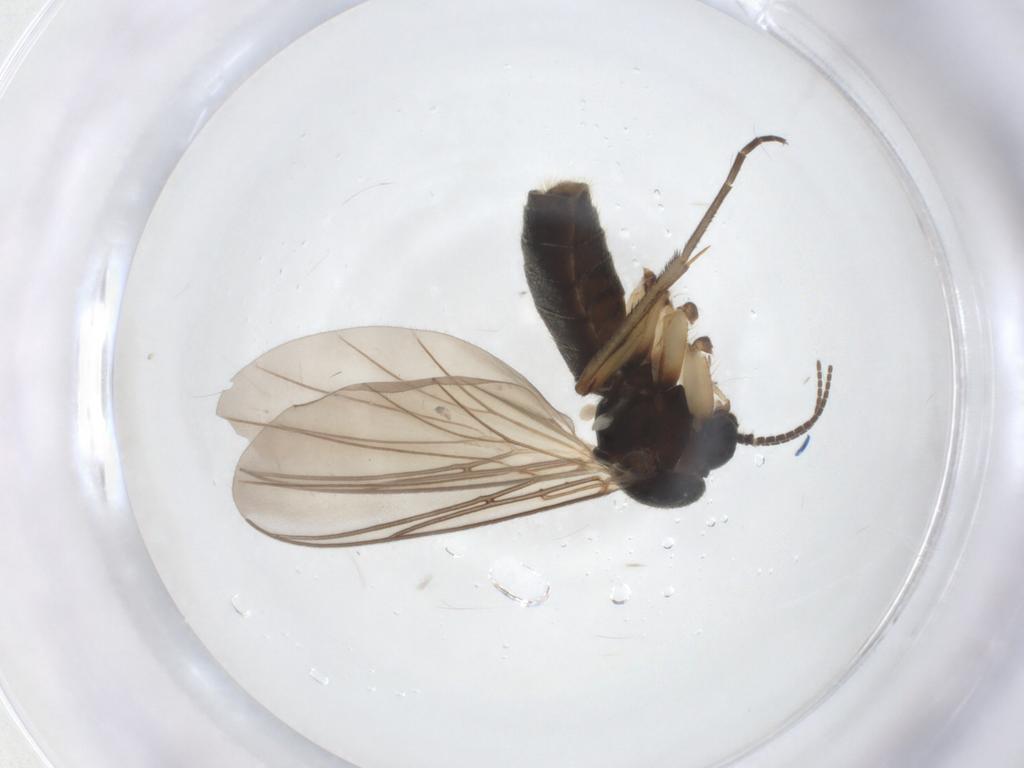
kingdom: Animalia
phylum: Arthropoda
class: Insecta
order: Diptera
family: Mycetophilidae
